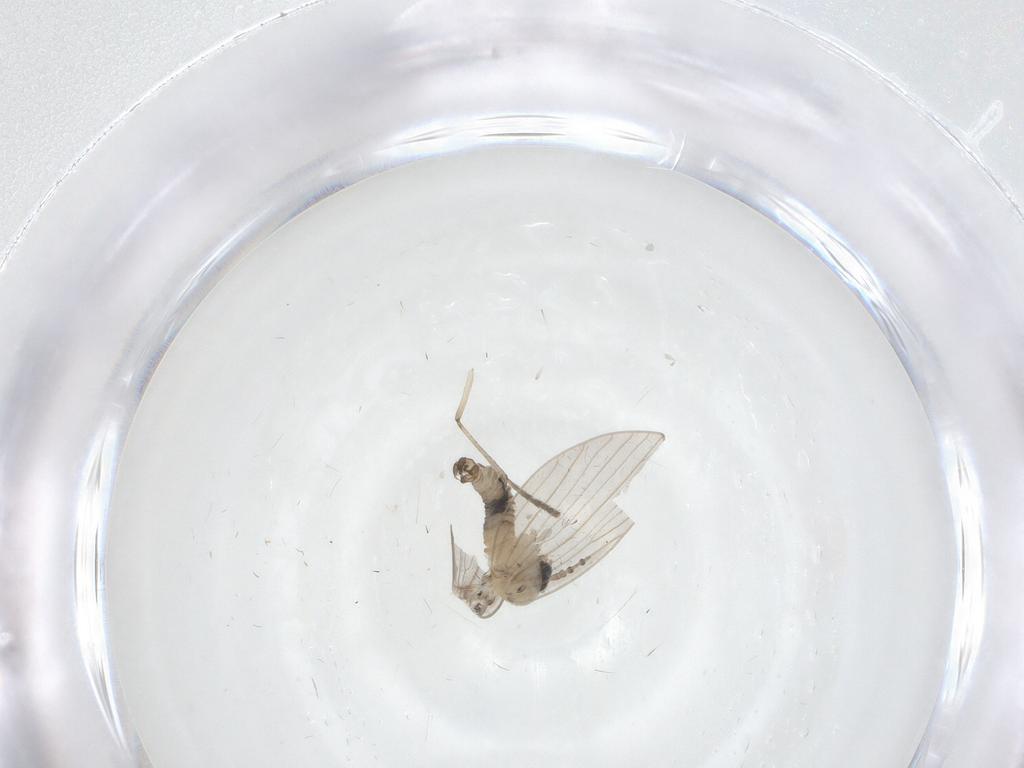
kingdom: Animalia
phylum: Arthropoda
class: Insecta
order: Diptera
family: Psychodidae
